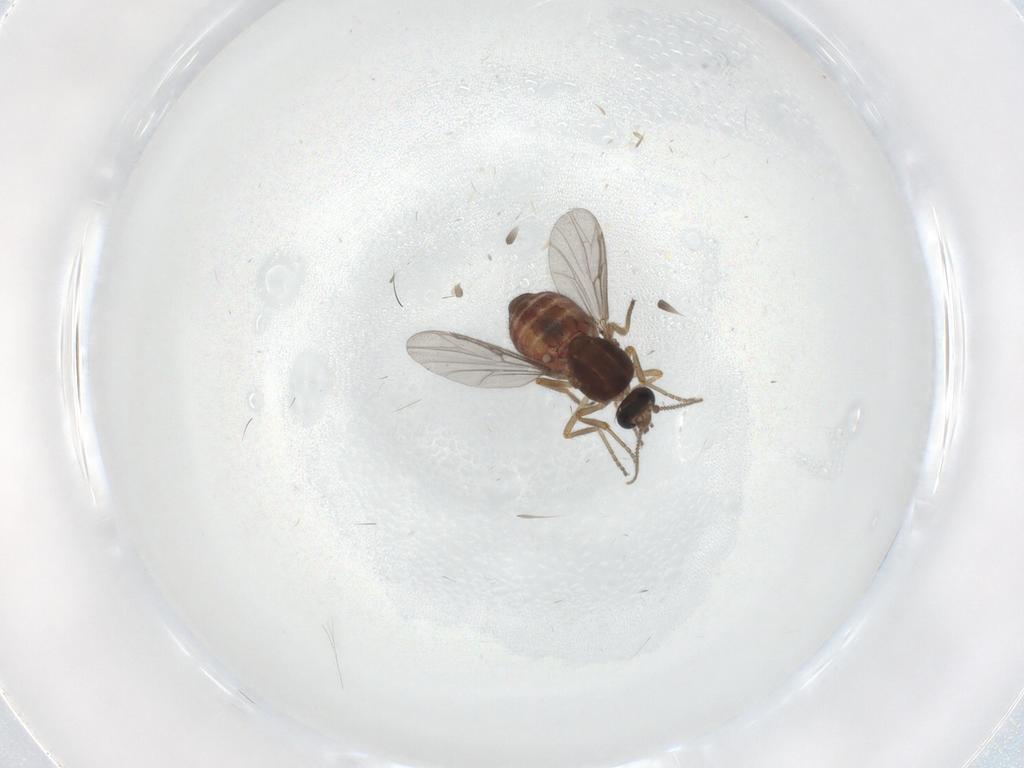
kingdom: Animalia
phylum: Arthropoda
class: Insecta
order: Diptera
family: Ceratopogonidae
